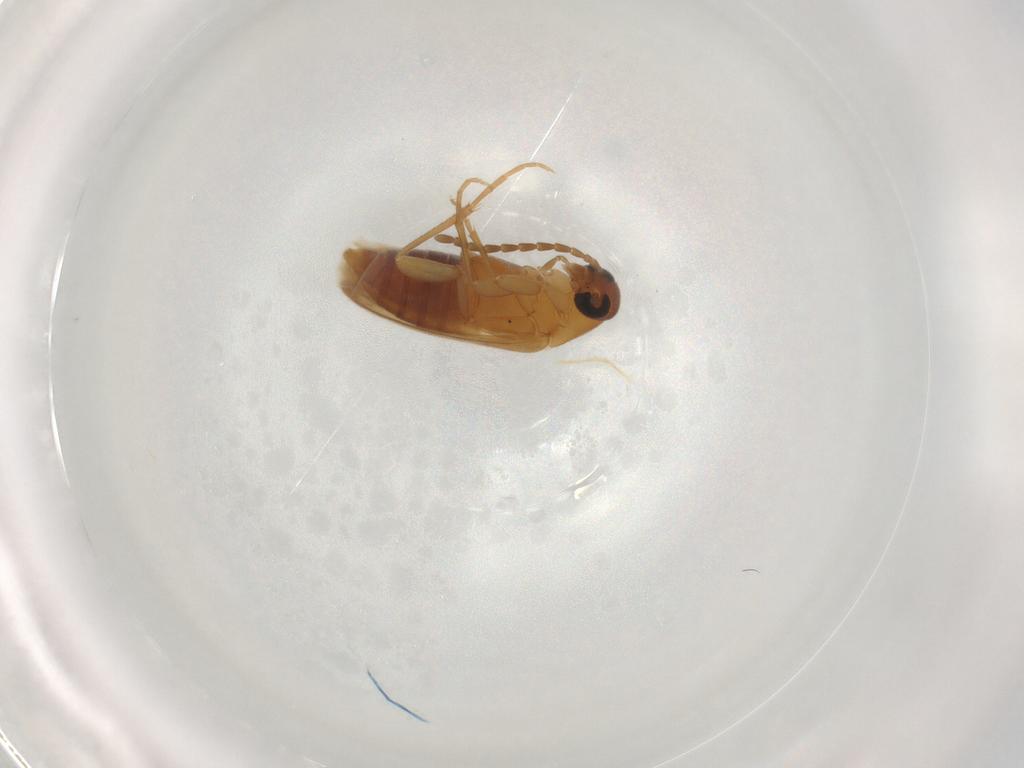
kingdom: Animalia
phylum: Arthropoda
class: Insecta
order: Coleoptera
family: Scraptiidae
